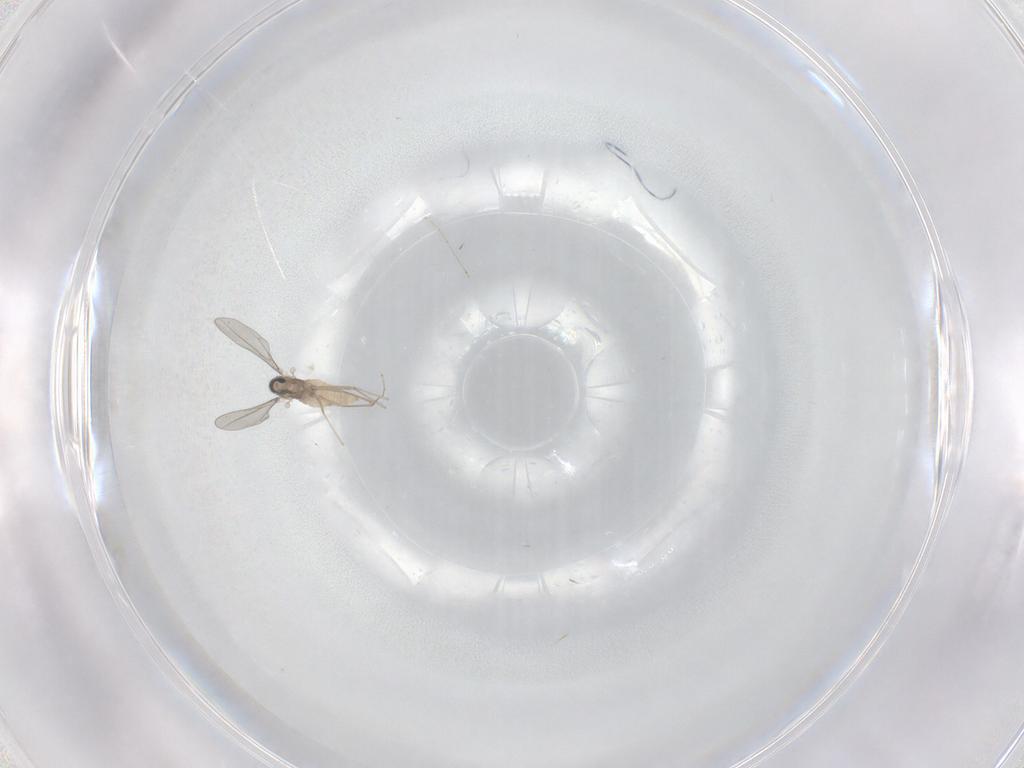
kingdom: Animalia
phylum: Arthropoda
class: Insecta
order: Diptera
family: Cecidomyiidae
